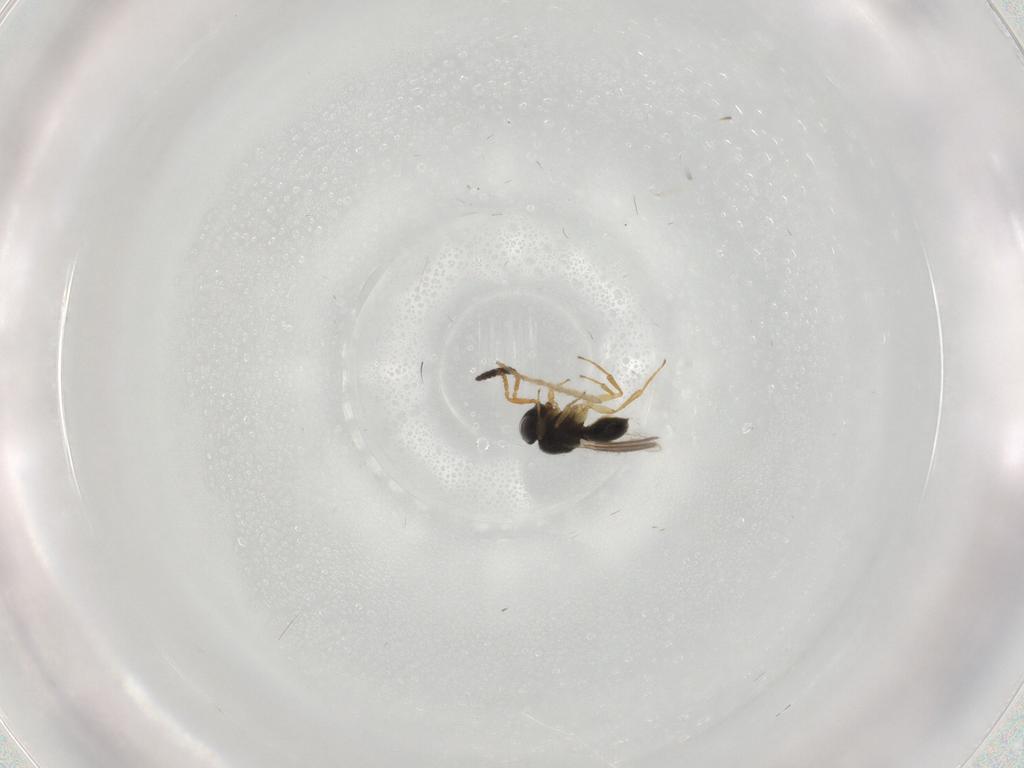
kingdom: Animalia
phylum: Arthropoda
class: Insecta
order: Hymenoptera
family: Scelionidae
